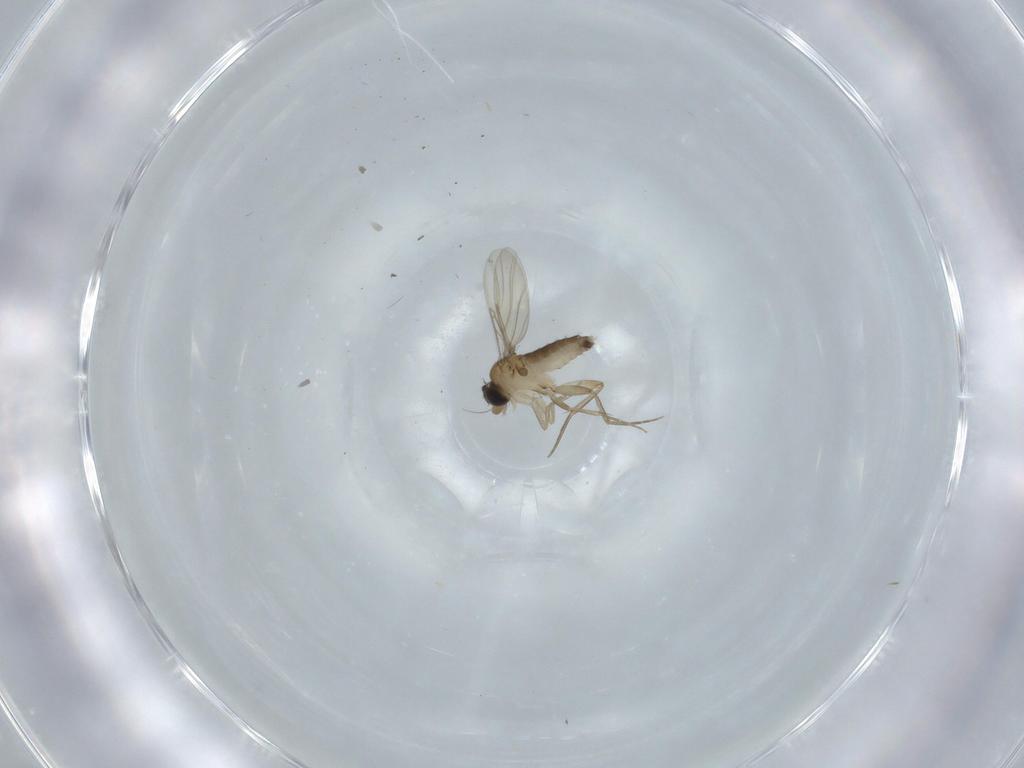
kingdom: Animalia
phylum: Arthropoda
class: Insecta
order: Diptera
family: Phoridae
